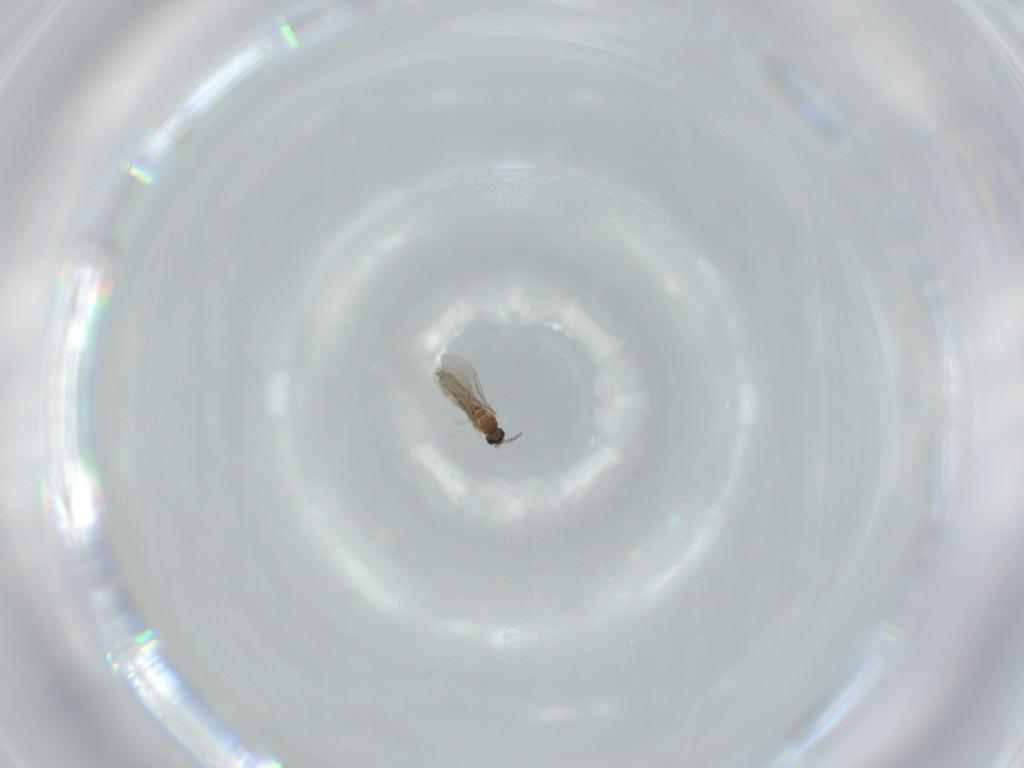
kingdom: Animalia
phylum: Arthropoda
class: Insecta
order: Diptera
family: Cecidomyiidae
